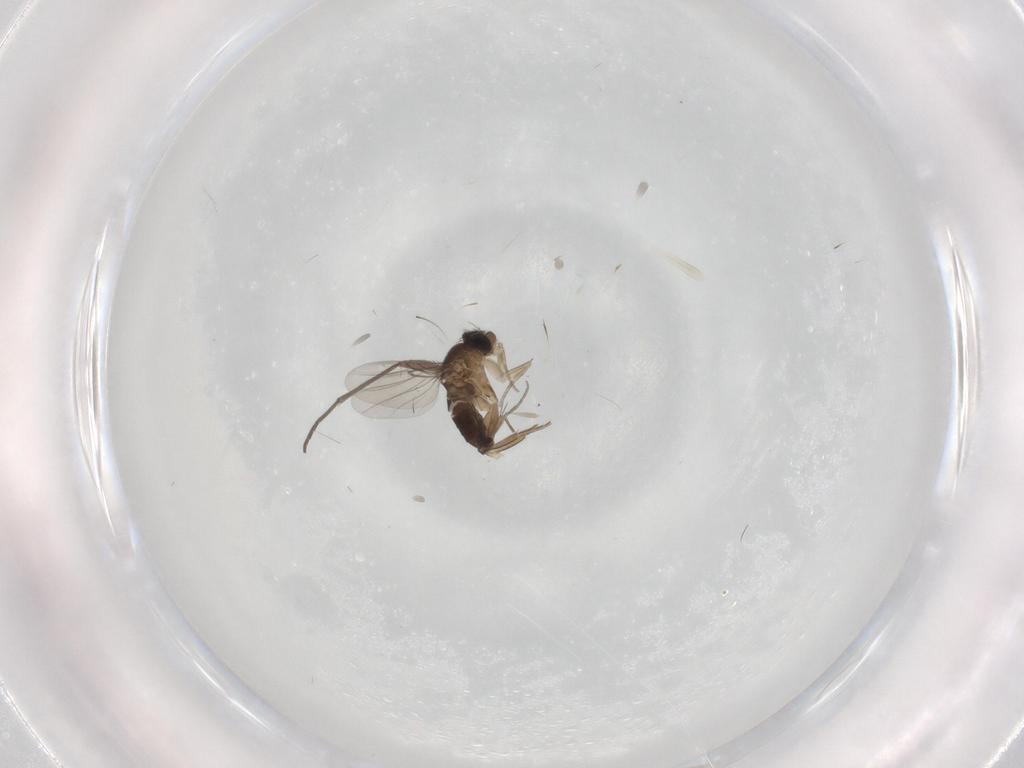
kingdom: Animalia
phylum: Arthropoda
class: Insecta
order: Diptera
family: Phoridae
